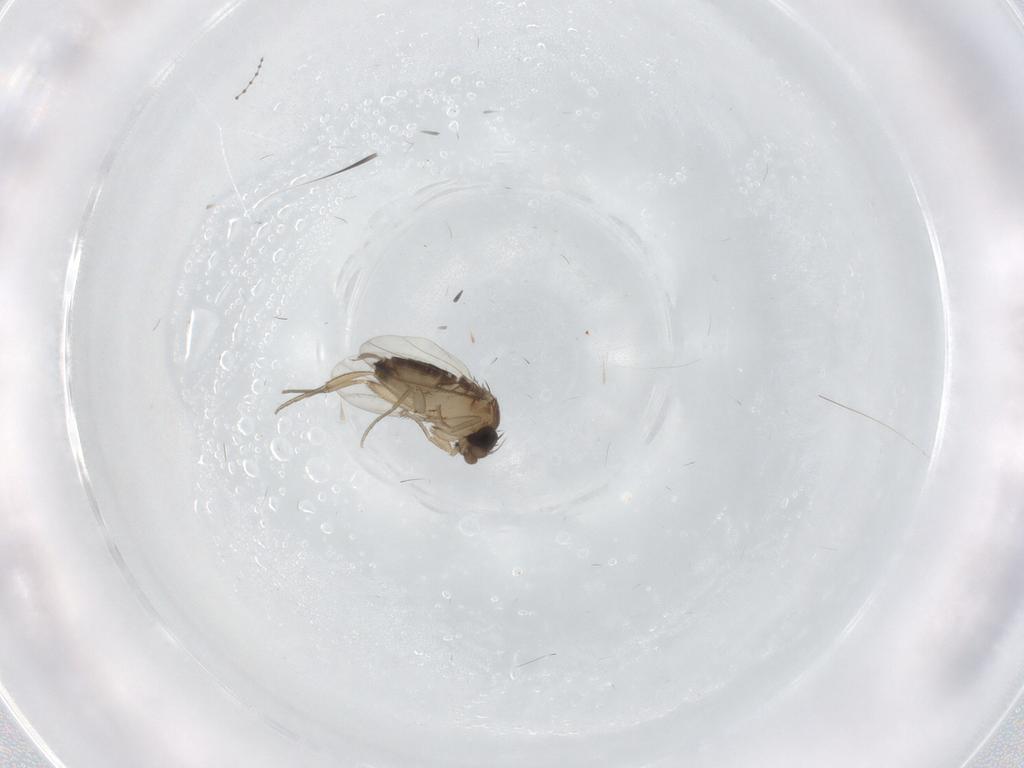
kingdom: Animalia
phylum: Arthropoda
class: Insecta
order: Diptera
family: Phoridae
